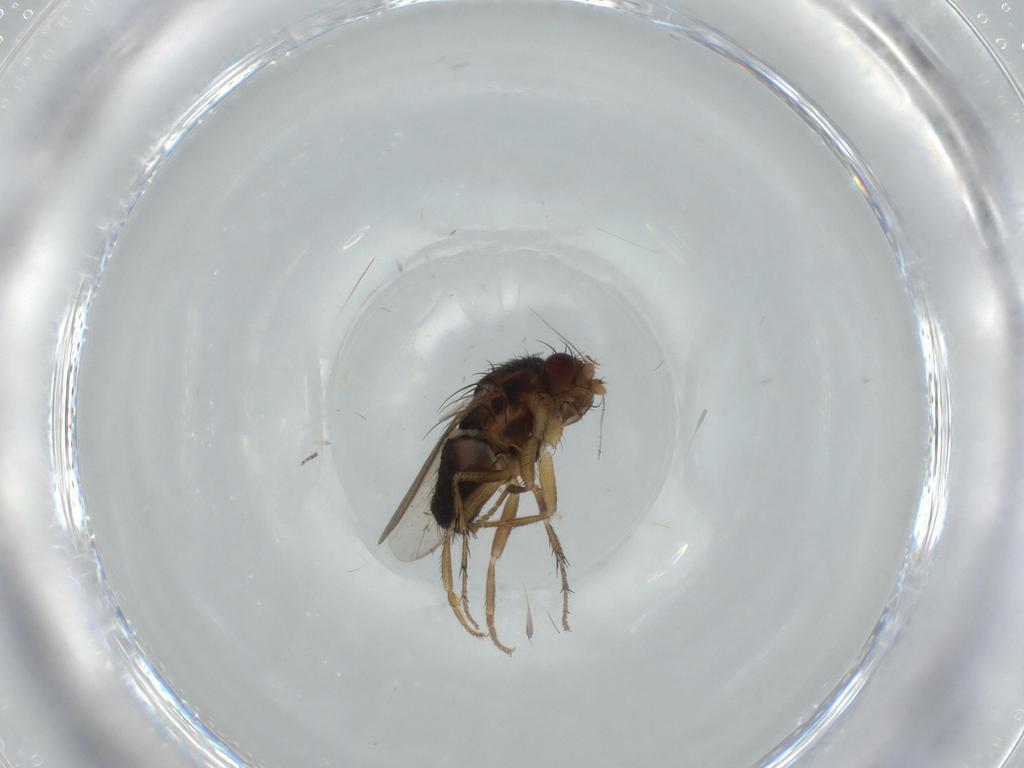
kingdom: Animalia
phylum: Arthropoda
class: Insecta
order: Diptera
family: Sphaeroceridae
